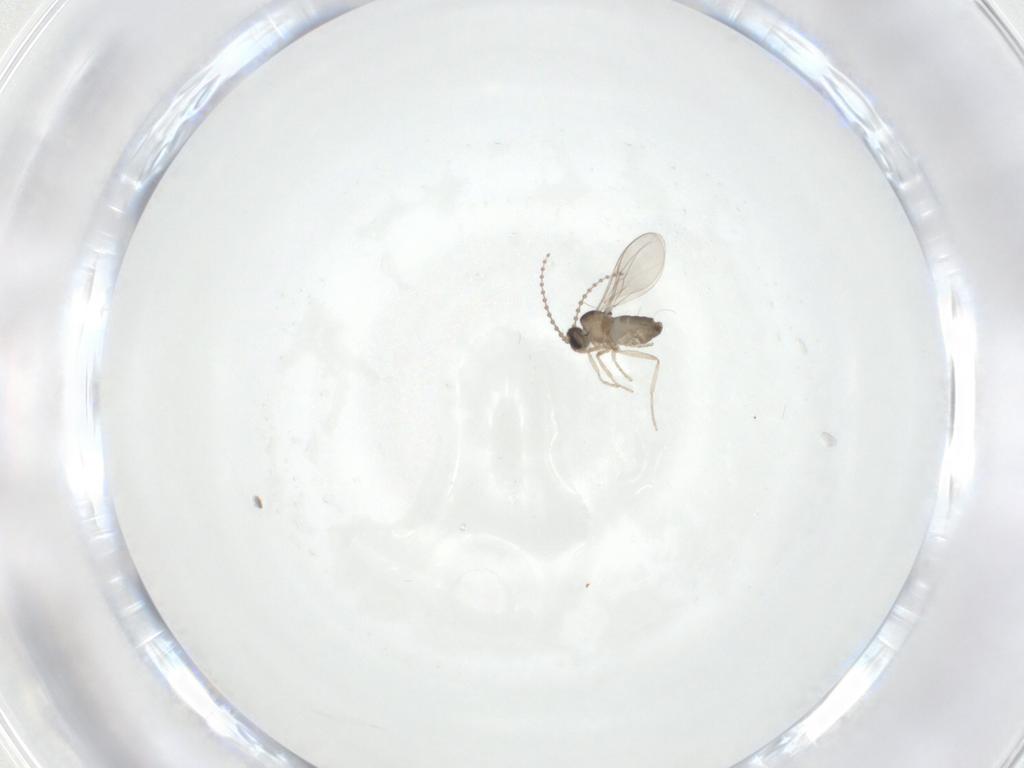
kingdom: Animalia
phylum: Arthropoda
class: Insecta
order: Diptera
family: Cecidomyiidae
